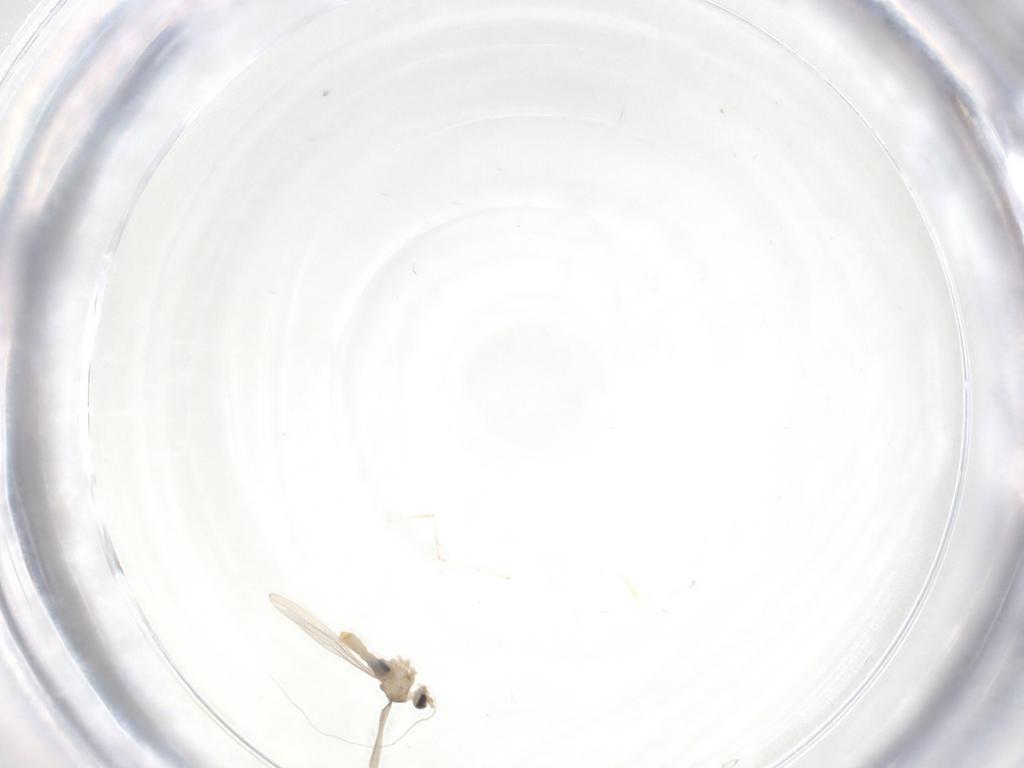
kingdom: Animalia
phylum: Arthropoda
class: Insecta
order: Diptera
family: Cecidomyiidae
